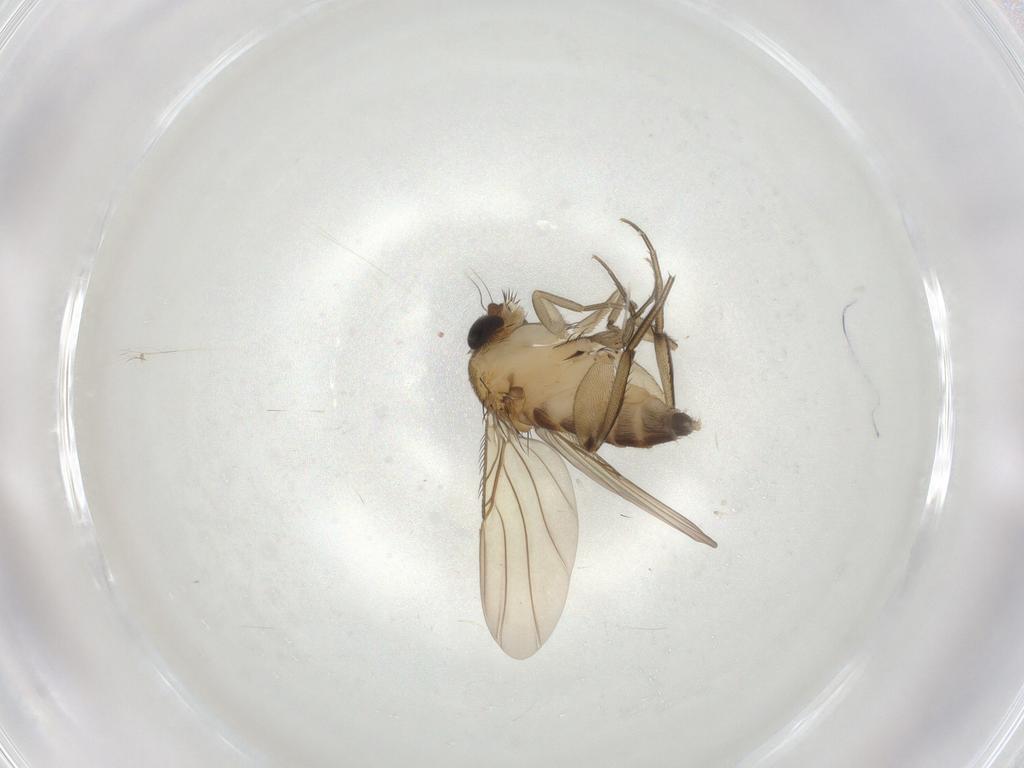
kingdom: Animalia
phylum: Arthropoda
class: Insecta
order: Diptera
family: Phoridae
